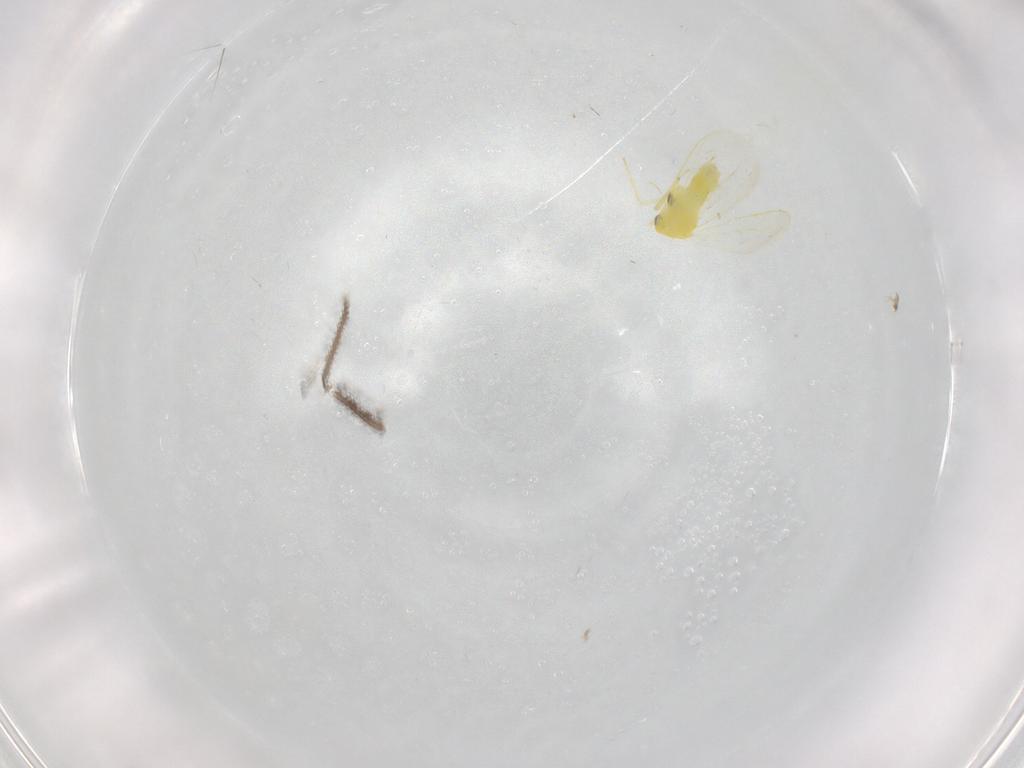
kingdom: Animalia
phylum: Arthropoda
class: Insecta
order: Hemiptera
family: Aleyrodidae
